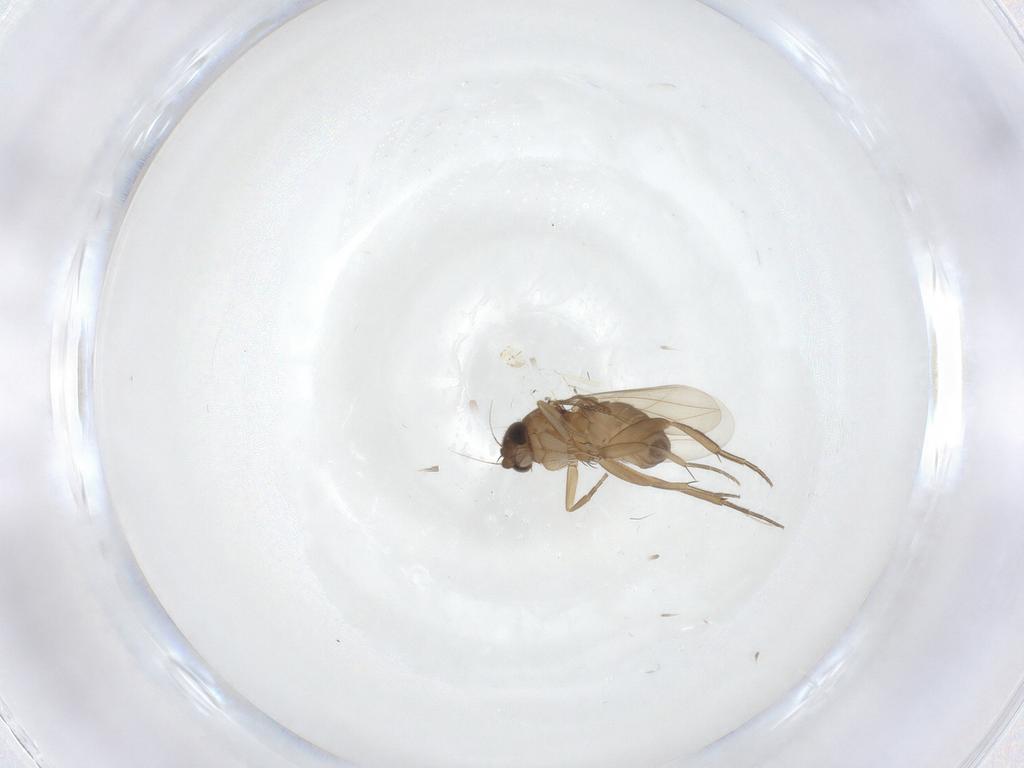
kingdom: Animalia
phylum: Arthropoda
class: Insecta
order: Diptera
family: Phoridae
